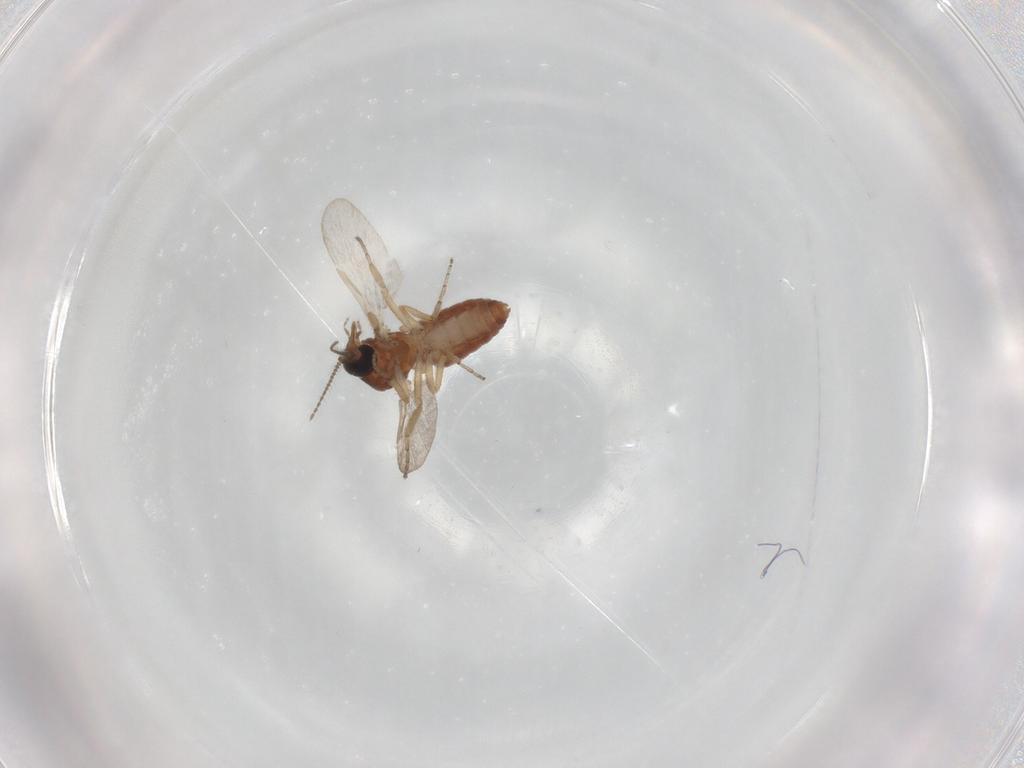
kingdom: Animalia
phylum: Arthropoda
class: Insecta
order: Diptera
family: Ceratopogonidae
